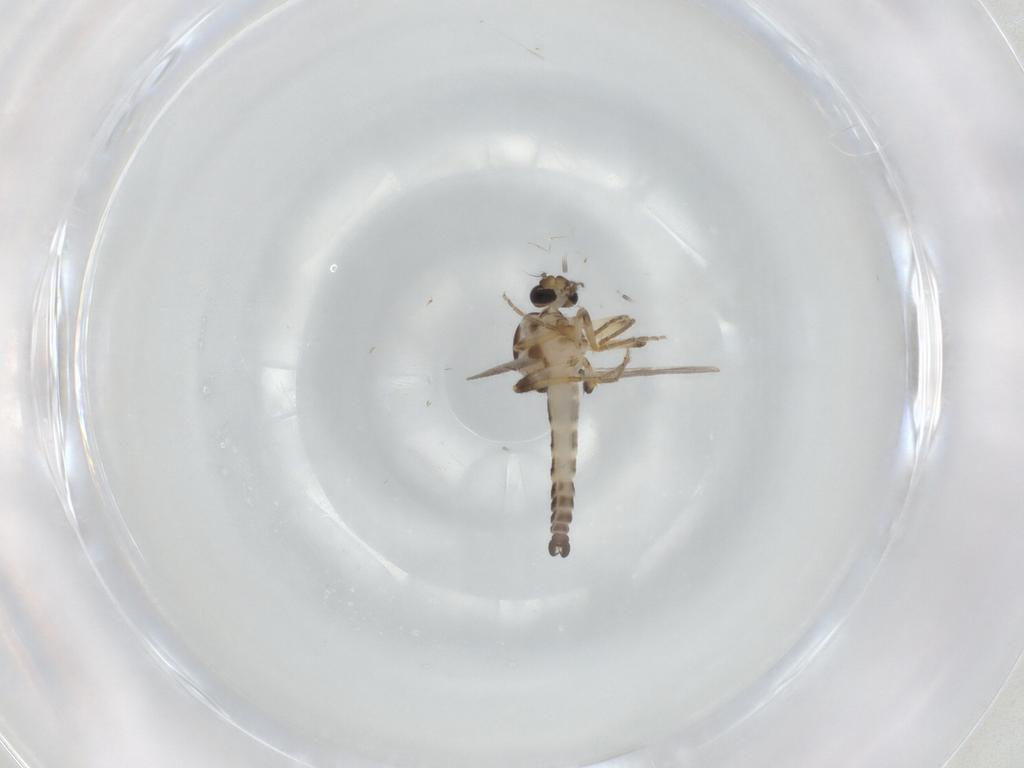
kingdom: Animalia
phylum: Arthropoda
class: Insecta
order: Diptera
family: Ceratopogonidae
